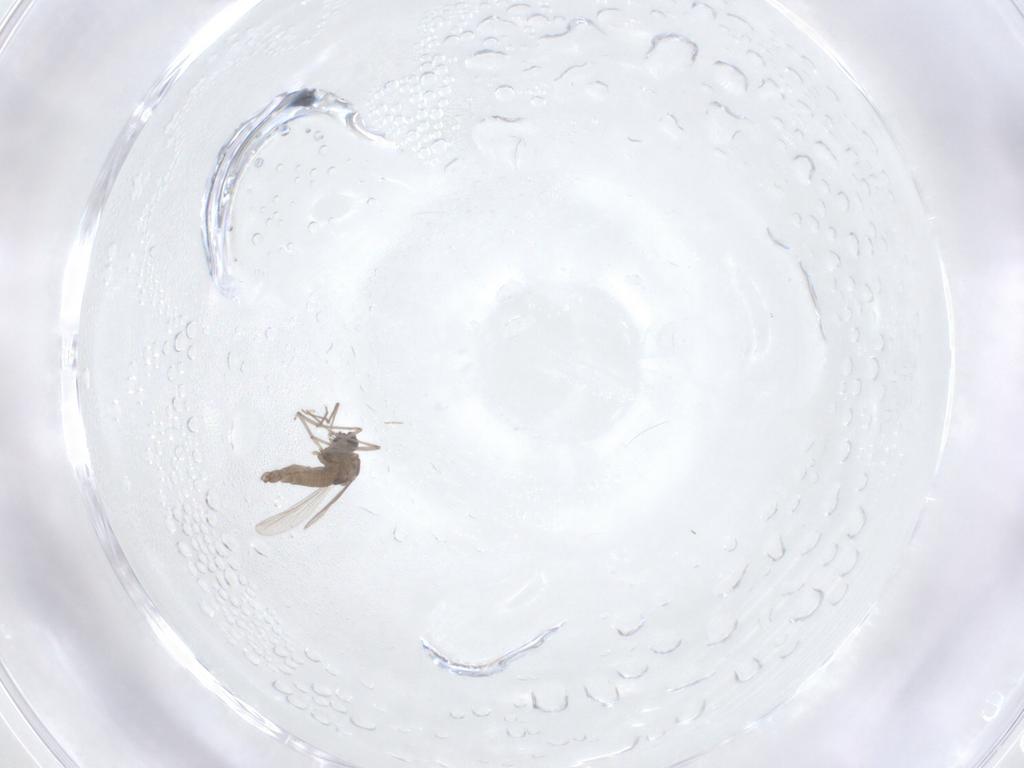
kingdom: Animalia
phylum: Arthropoda
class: Insecta
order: Diptera
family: Chironomidae
